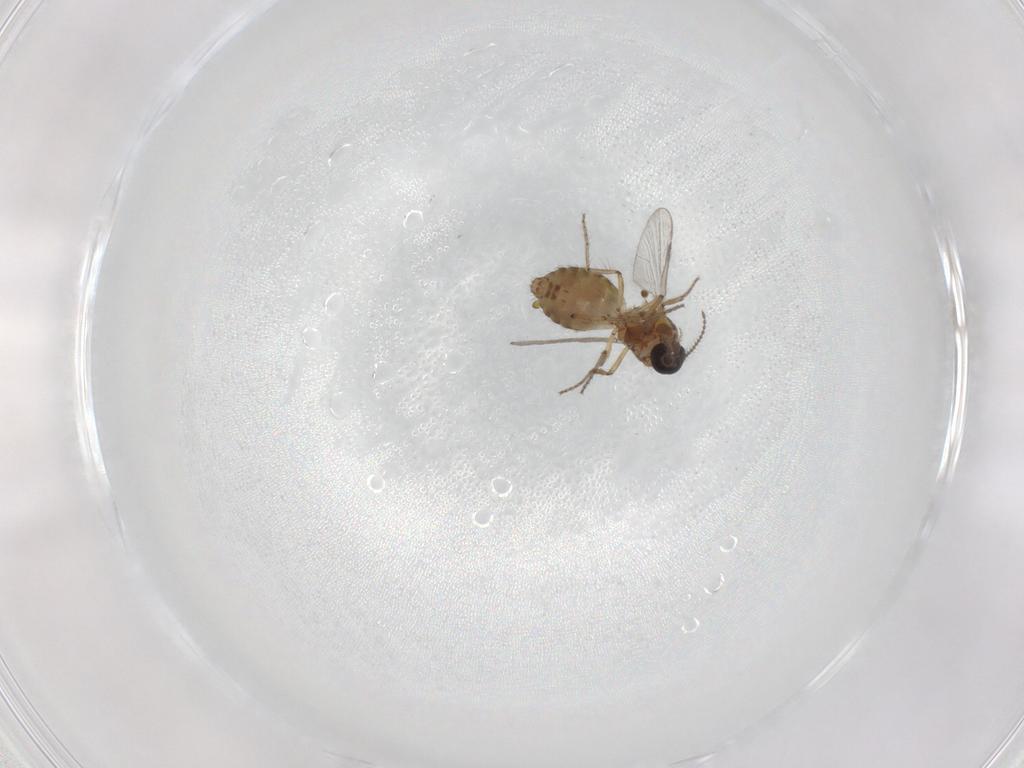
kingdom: Animalia
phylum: Arthropoda
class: Insecta
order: Diptera
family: Ceratopogonidae
